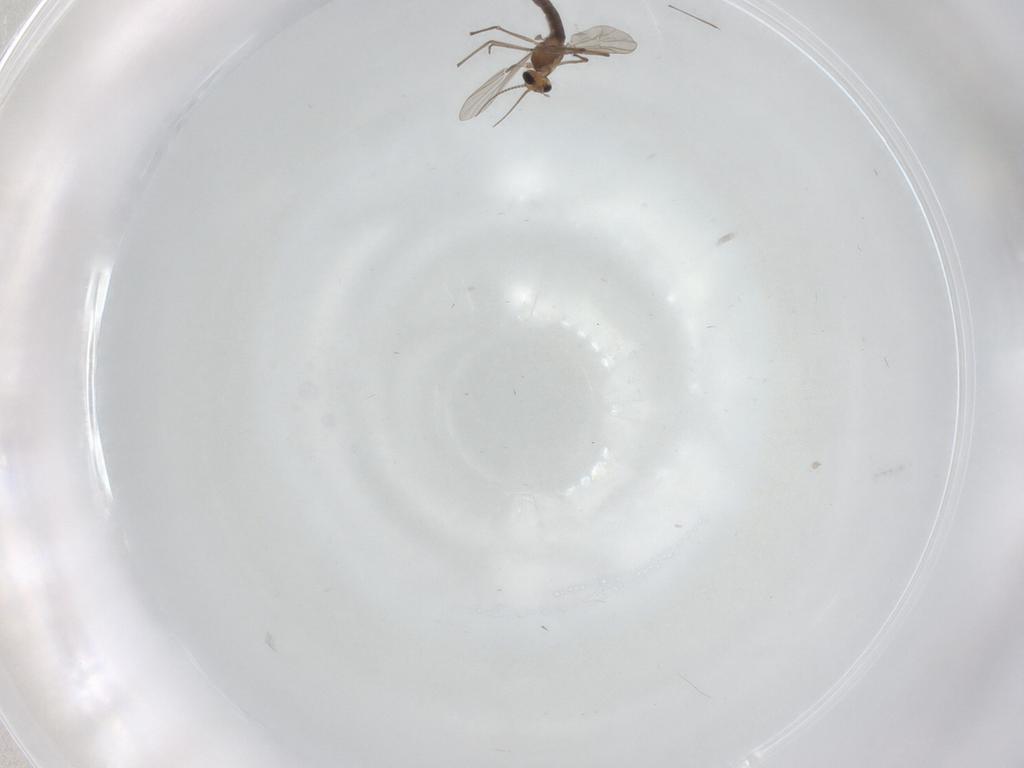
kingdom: Animalia
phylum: Arthropoda
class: Insecta
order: Diptera
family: Chironomidae
